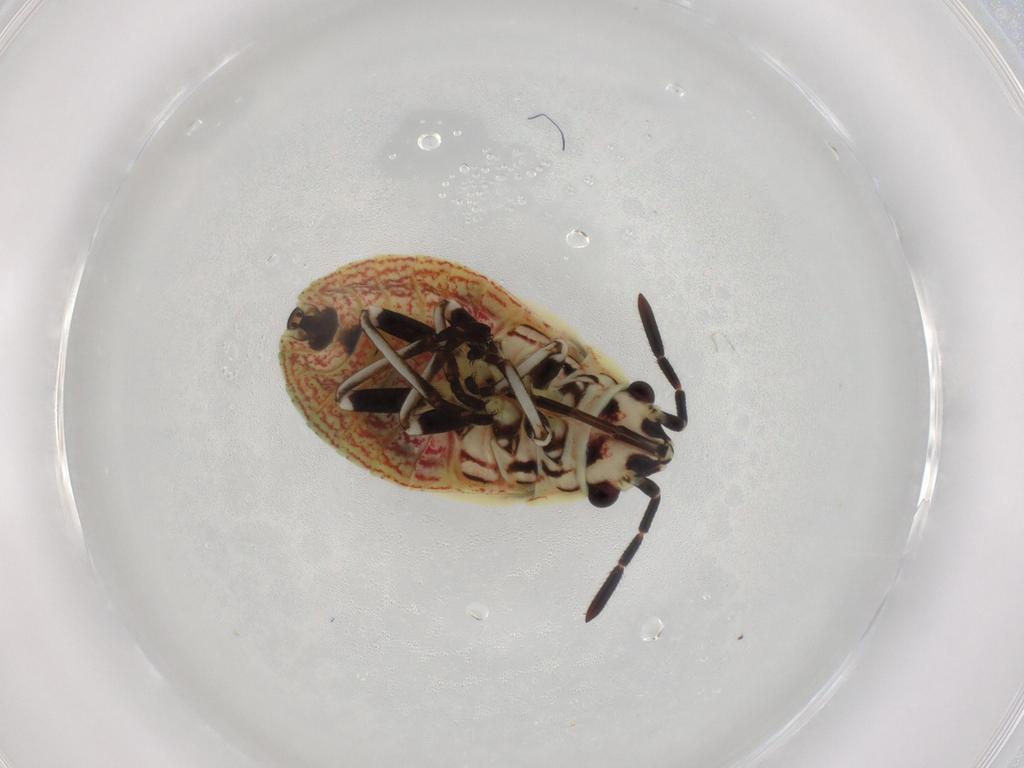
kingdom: Animalia
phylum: Arthropoda
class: Insecta
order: Hemiptera
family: Lygaeidae
